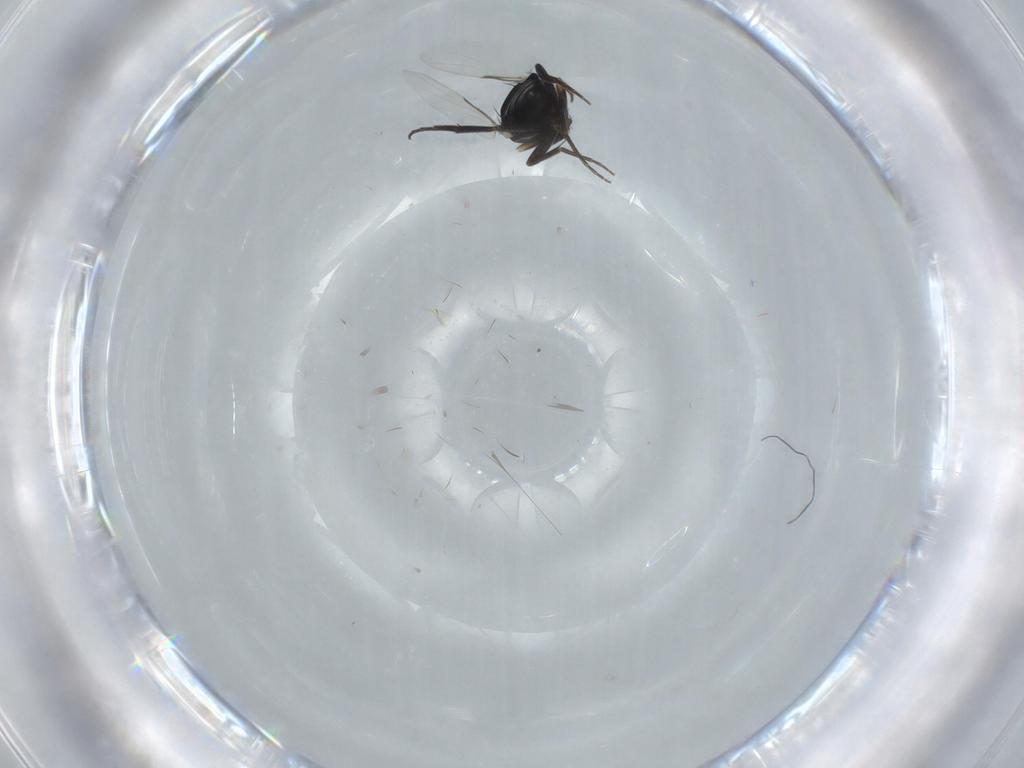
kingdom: Animalia
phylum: Arthropoda
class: Insecta
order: Diptera
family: Phoridae
